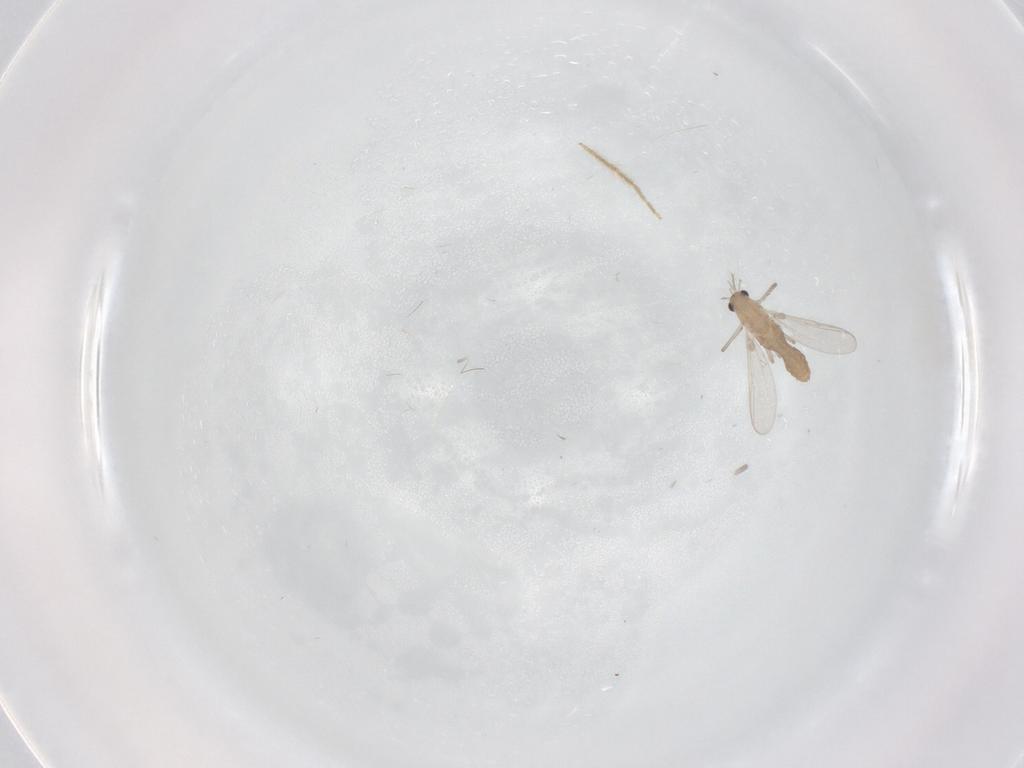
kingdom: Animalia
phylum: Arthropoda
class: Insecta
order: Diptera
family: Chironomidae
